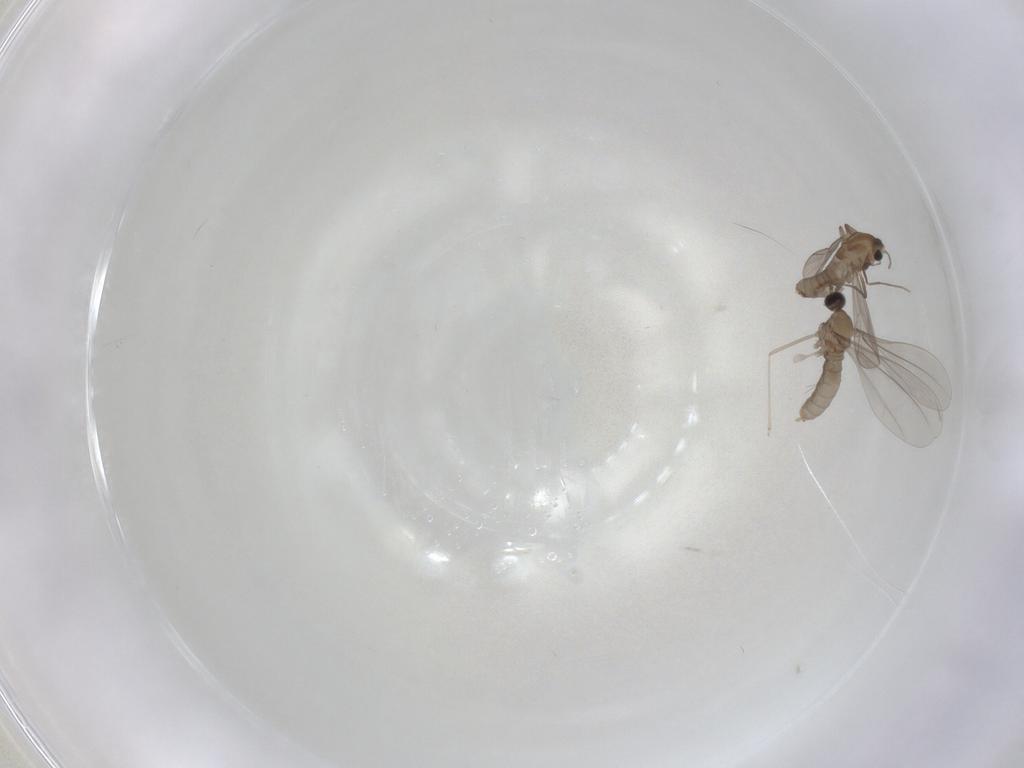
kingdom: Animalia
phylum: Arthropoda
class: Insecta
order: Diptera
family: Chironomidae
